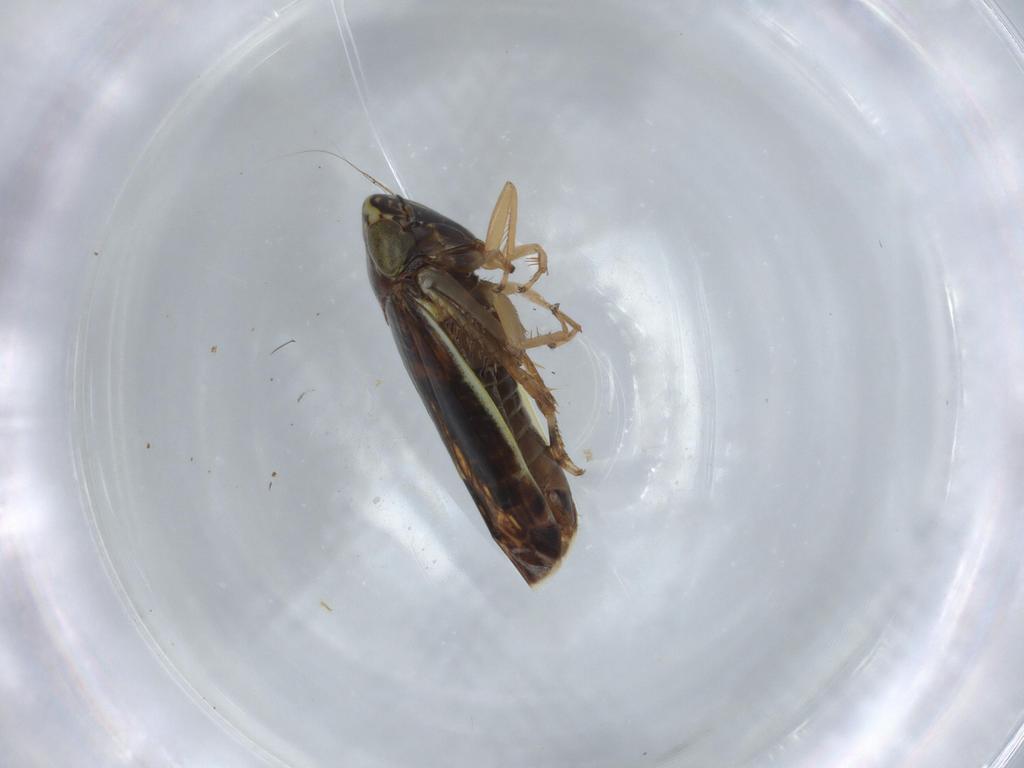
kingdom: Animalia
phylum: Arthropoda
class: Insecta
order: Hemiptera
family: Cicadellidae
